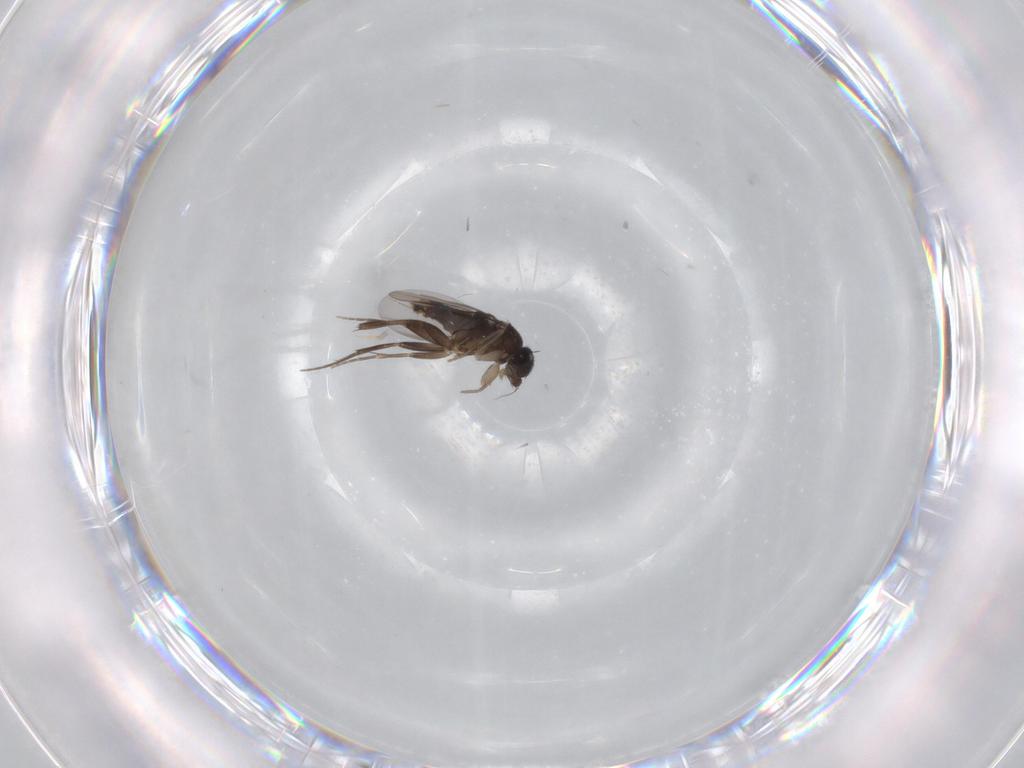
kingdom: Animalia
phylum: Arthropoda
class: Insecta
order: Diptera
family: Phoridae
